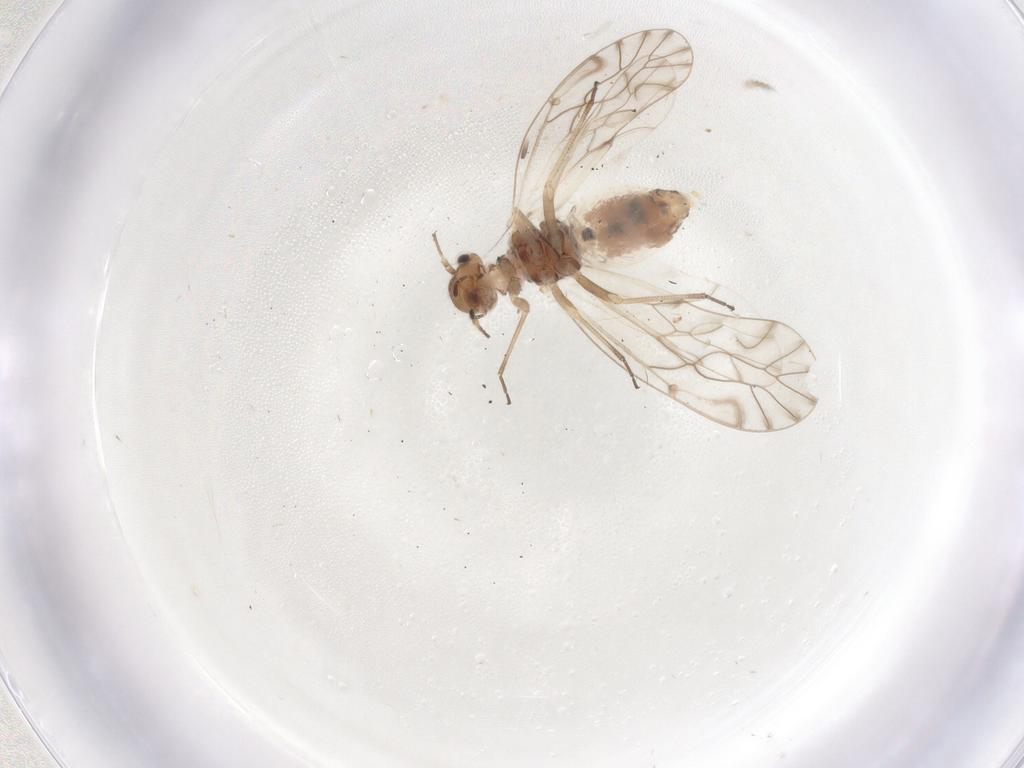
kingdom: Animalia
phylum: Arthropoda
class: Insecta
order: Psocodea
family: Lachesillidae
